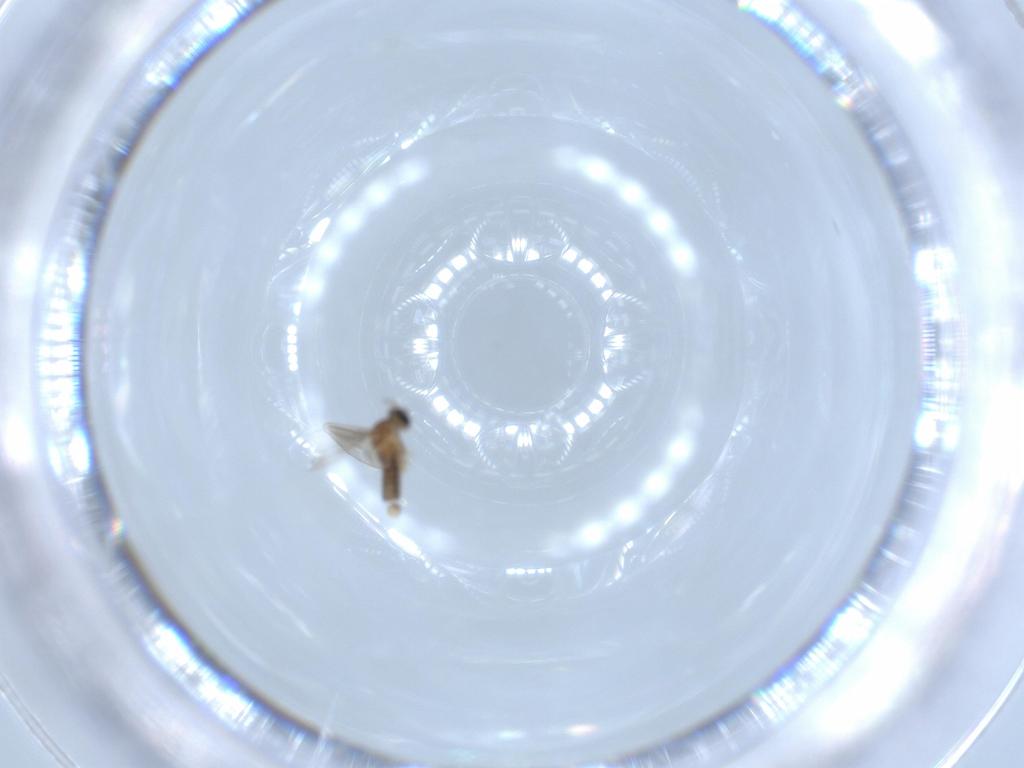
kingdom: Animalia
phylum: Arthropoda
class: Insecta
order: Diptera
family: Cecidomyiidae
